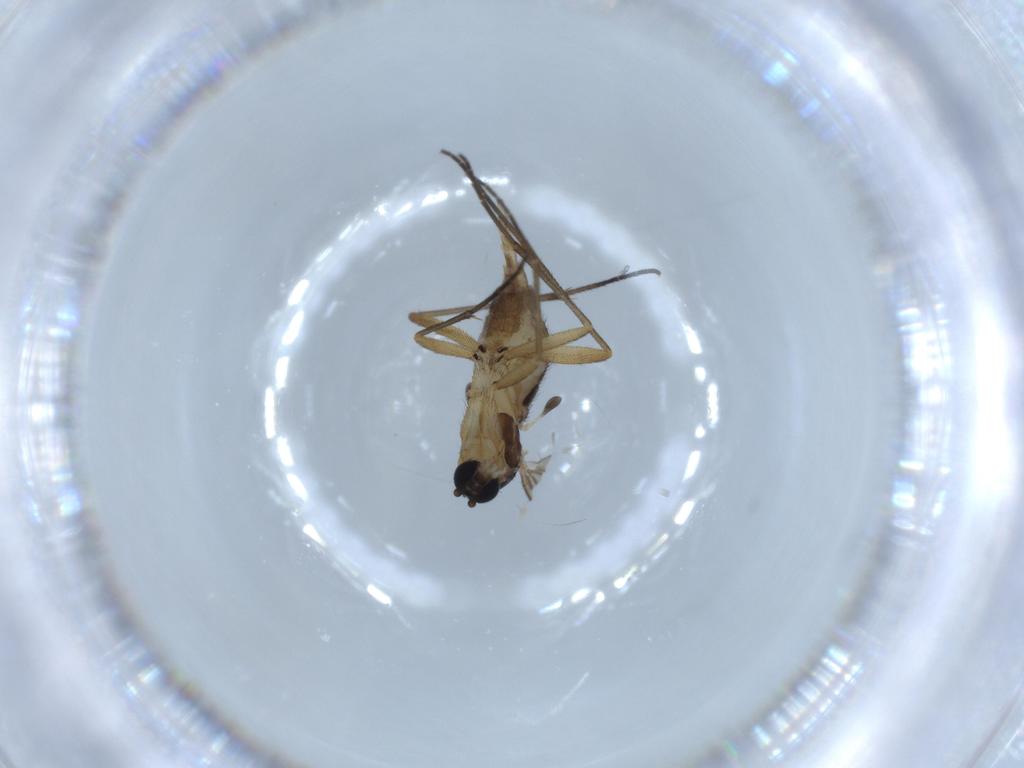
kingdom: Animalia
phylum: Arthropoda
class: Insecta
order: Diptera
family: Sciaridae
